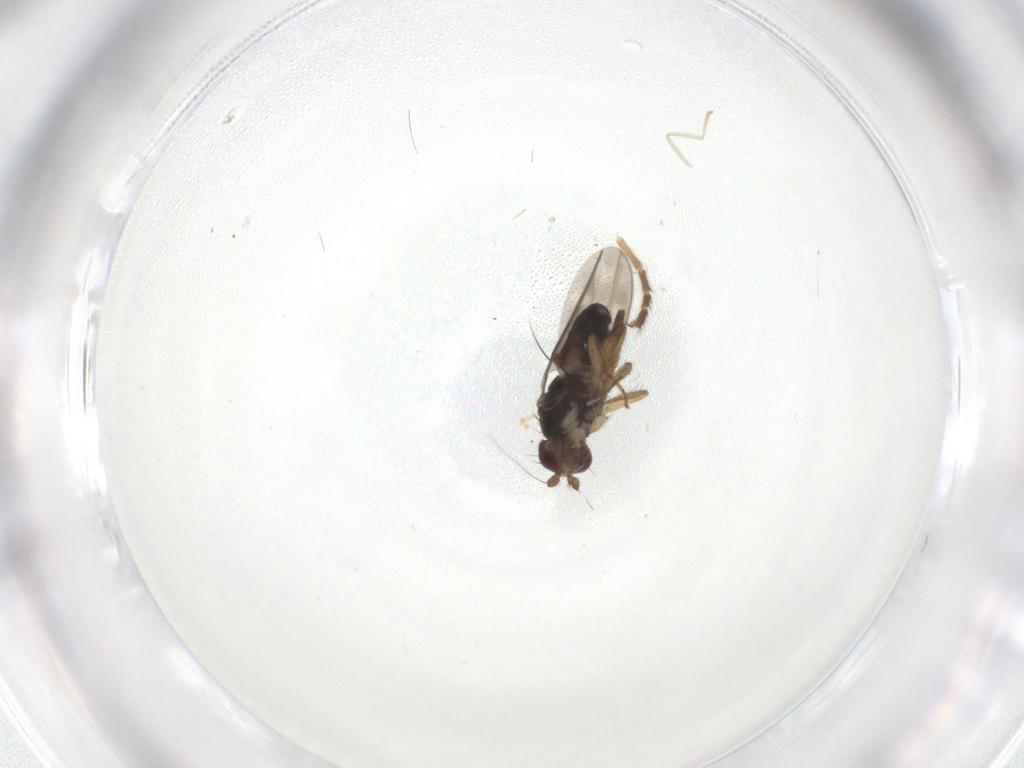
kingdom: Animalia
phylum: Arthropoda
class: Insecta
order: Diptera
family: Sphaeroceridae
